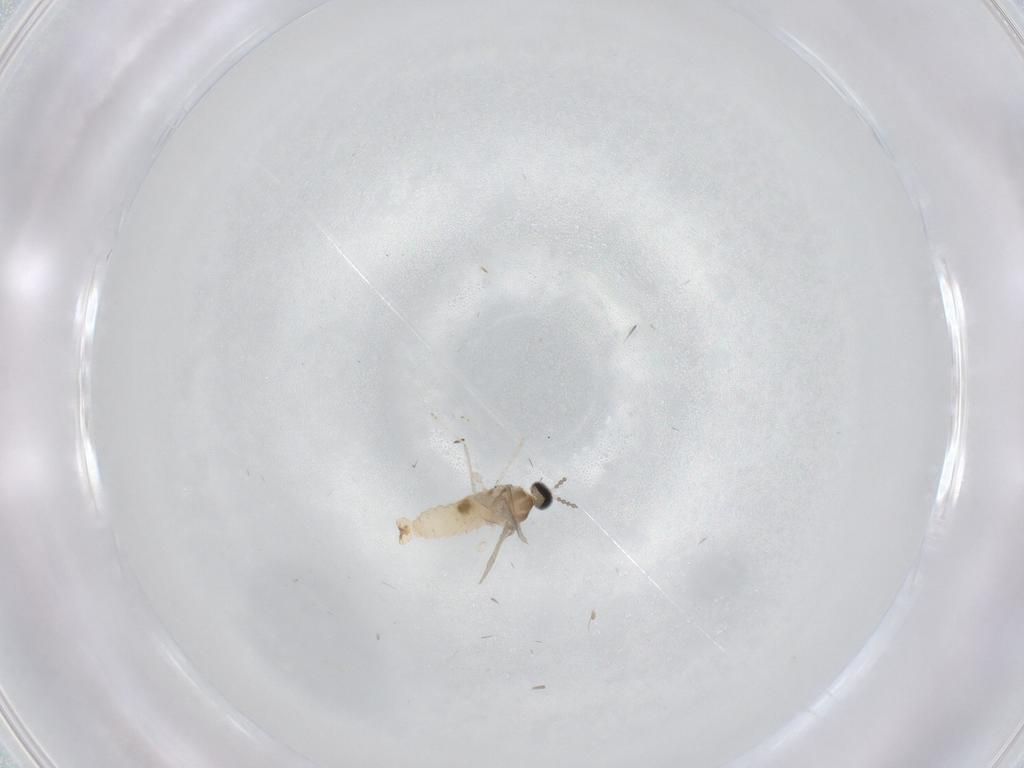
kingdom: Animalia
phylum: Arthropoda
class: Insecta
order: Diptera
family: Cecidomyiidae
